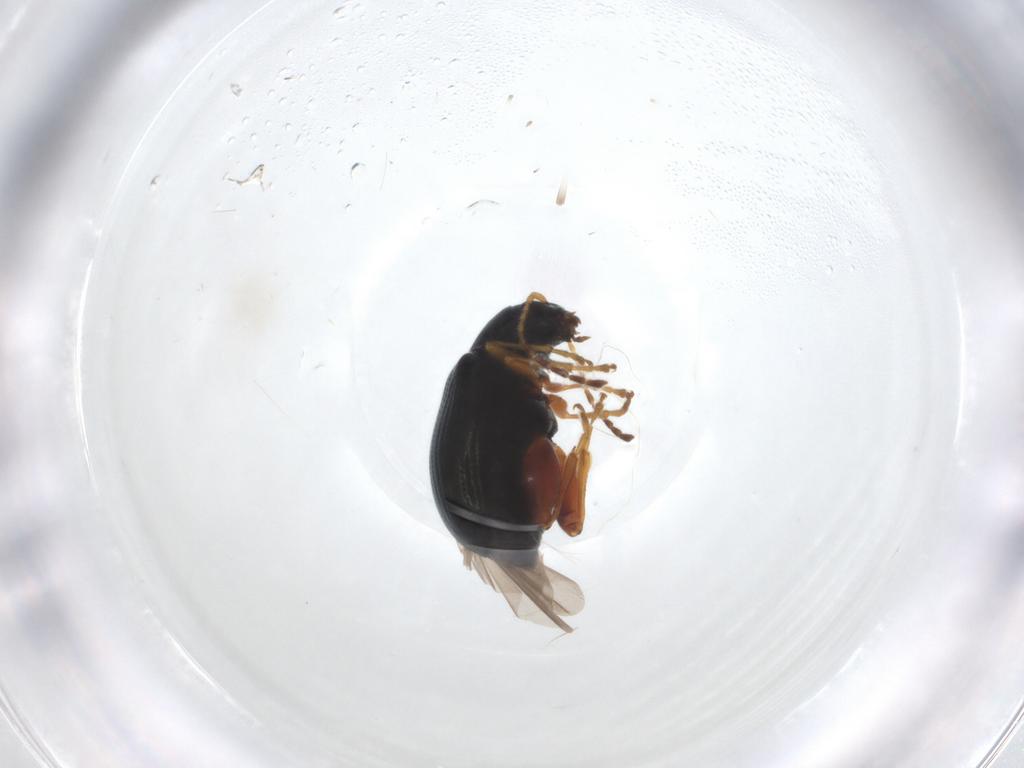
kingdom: Animalia
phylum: Arthropoda
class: Insecta
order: Coleoptera
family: Chrysomelidae
